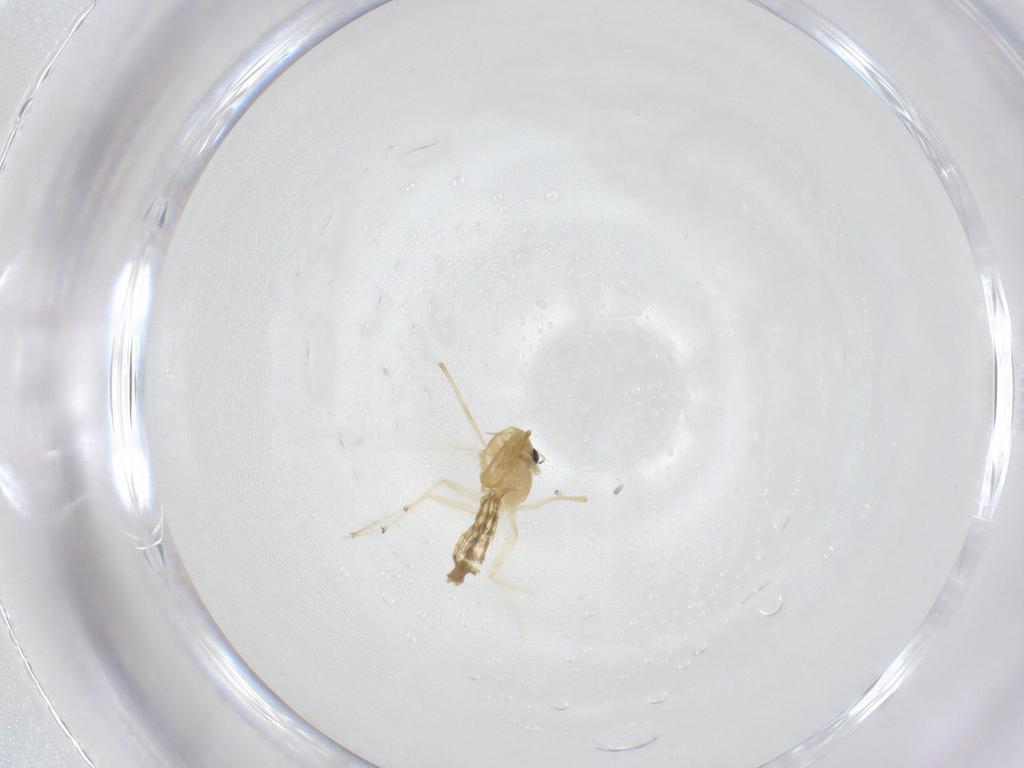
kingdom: Animalia
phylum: Arthropoda
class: Insecta
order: Diptera
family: Chironomidae
